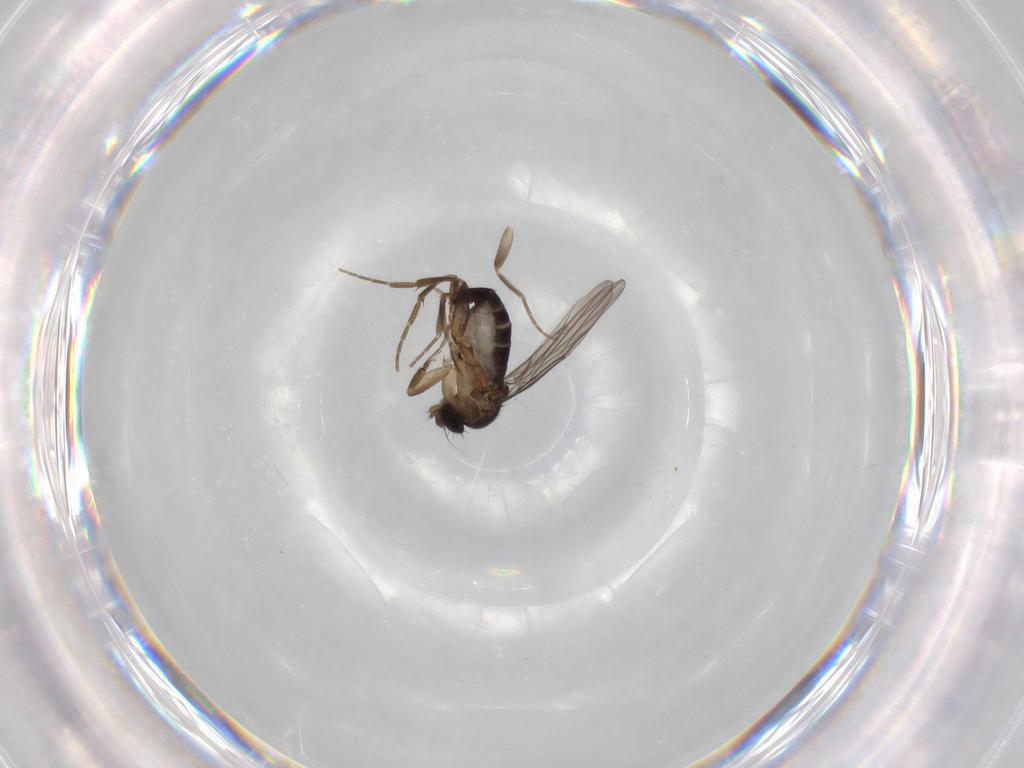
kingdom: Animalia
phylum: Arthropoda
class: Insecta
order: Diptera
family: Phoridae
